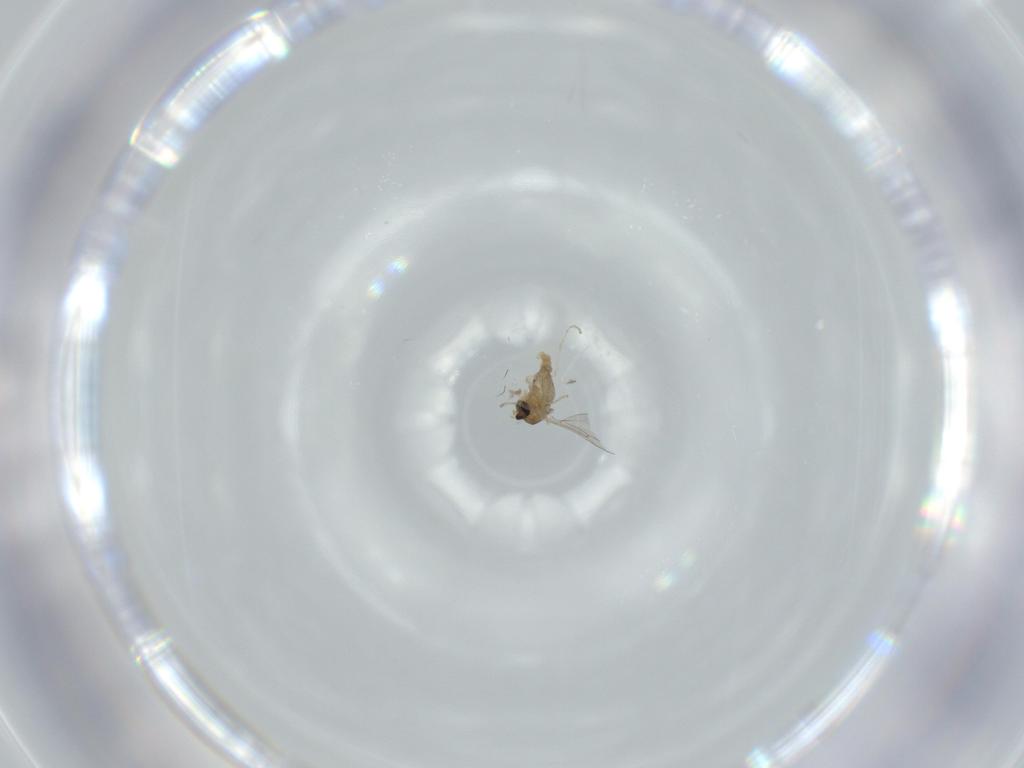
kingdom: Animalia
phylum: Arthropoda
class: Insecta
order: Diptera
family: Cecidomyiidae
